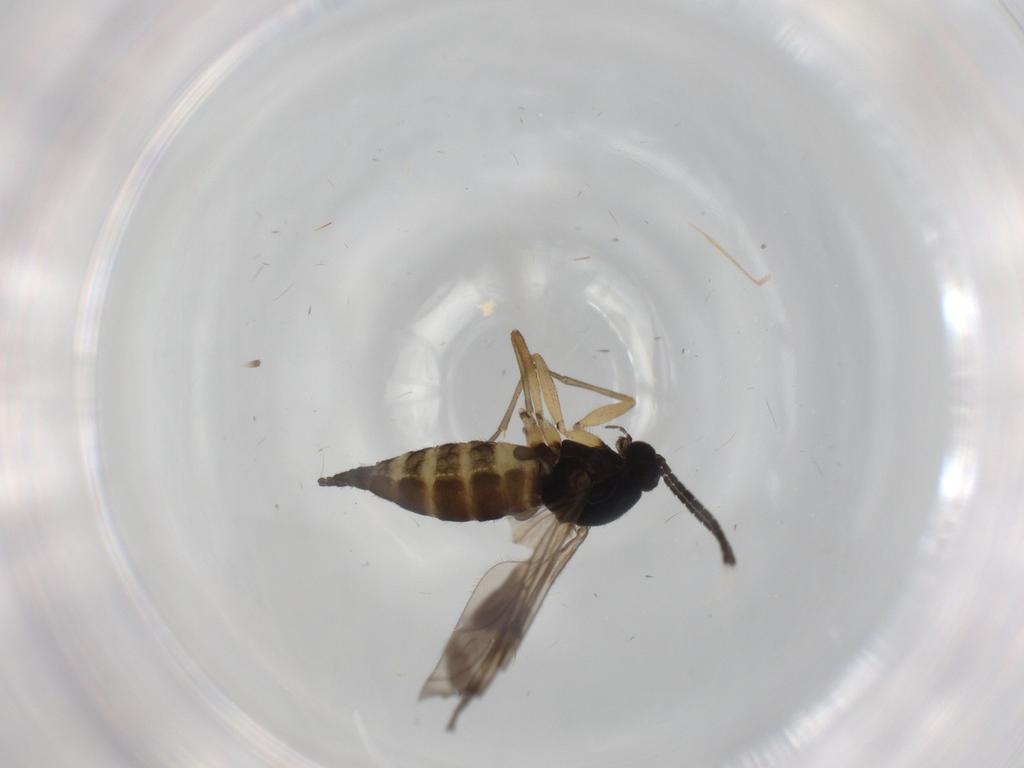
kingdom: Animalia
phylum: Arthropoda
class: Insecta
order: Diptera
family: Sciaridae
